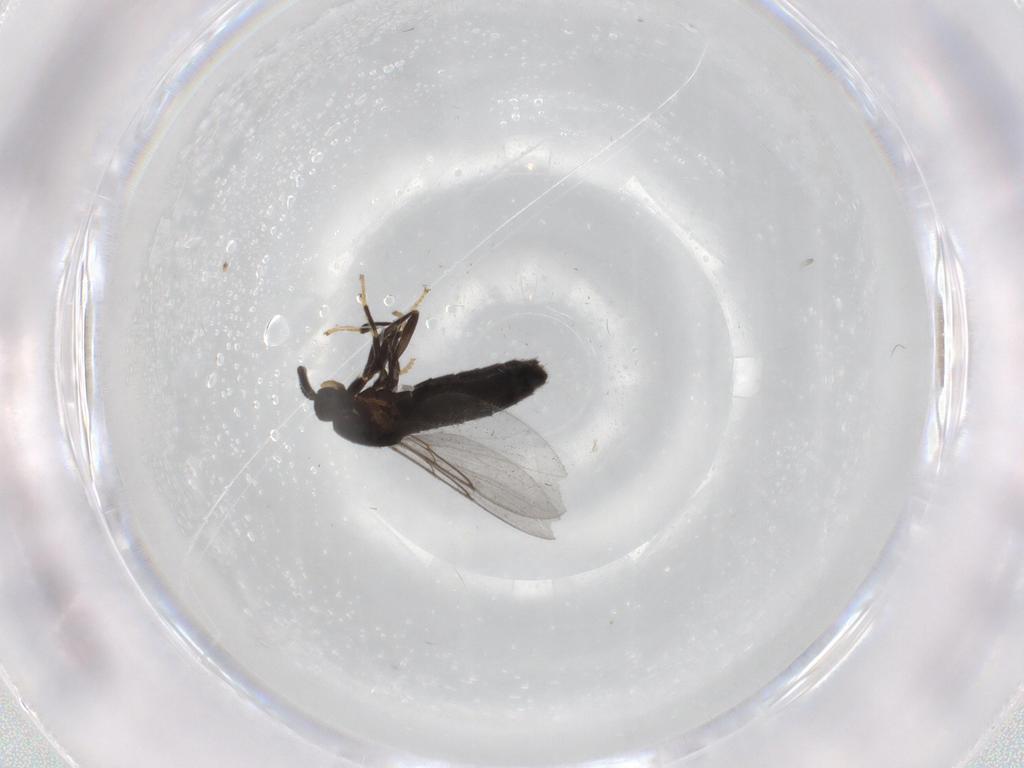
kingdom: Animalia
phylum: Arthropoda
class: Insecta
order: Diptera
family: Scatopsidae
